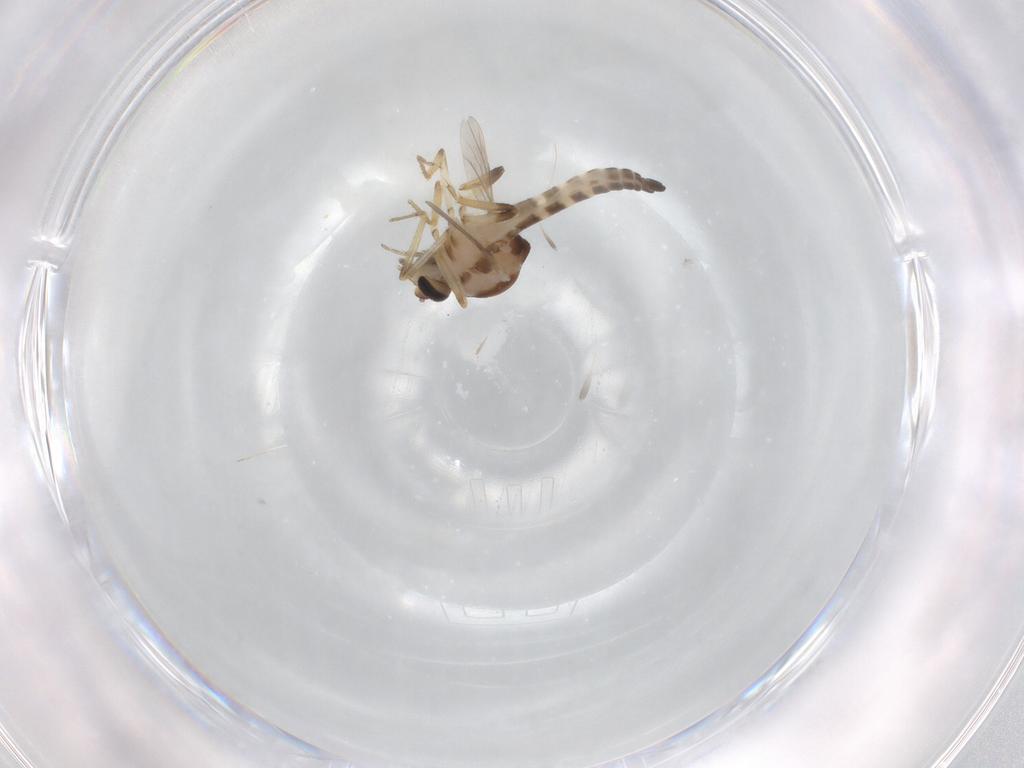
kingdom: Animalia
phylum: Arthropoda
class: Insecta
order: Diptera
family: Ceratopogonidae
